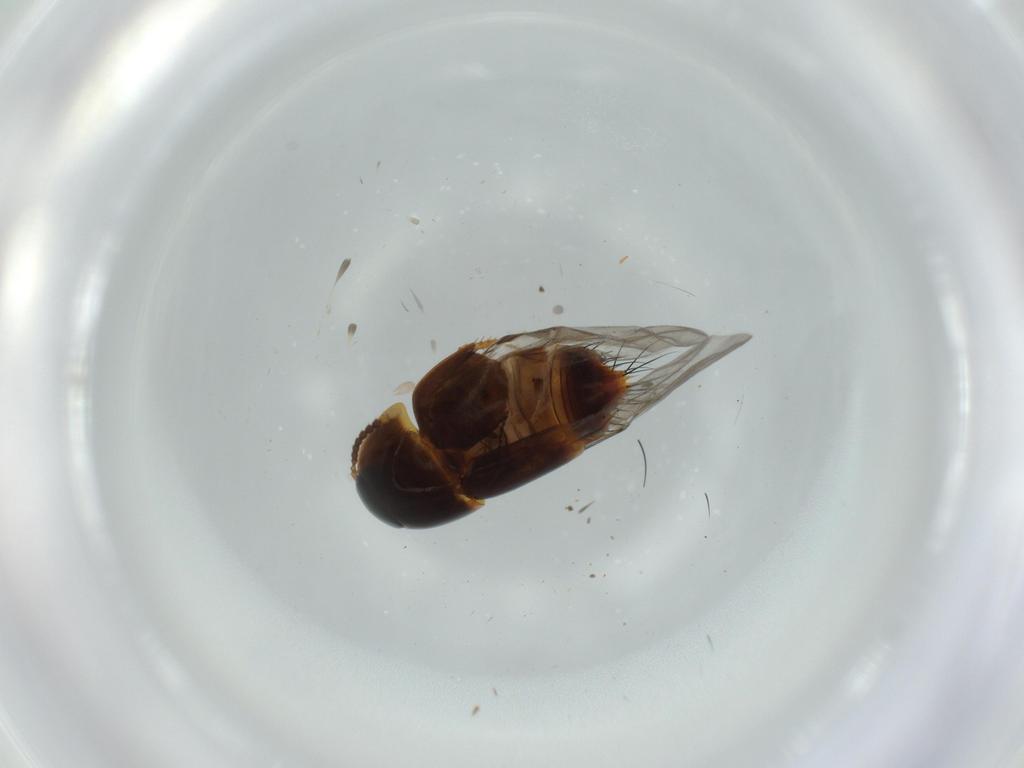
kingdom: Animalia
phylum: Arthropoda
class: Insecta
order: Coleoptera
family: Staphylinidae
